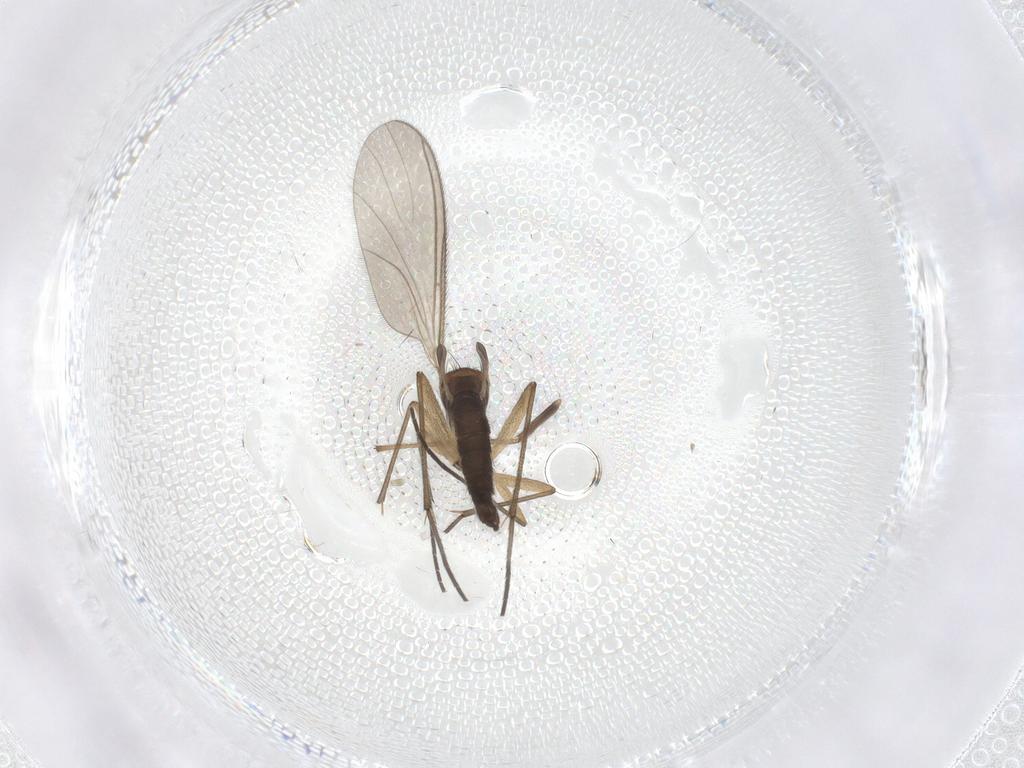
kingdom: Animalia
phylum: Arthropoda
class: Insecta
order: Diptera
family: Sciaridae
